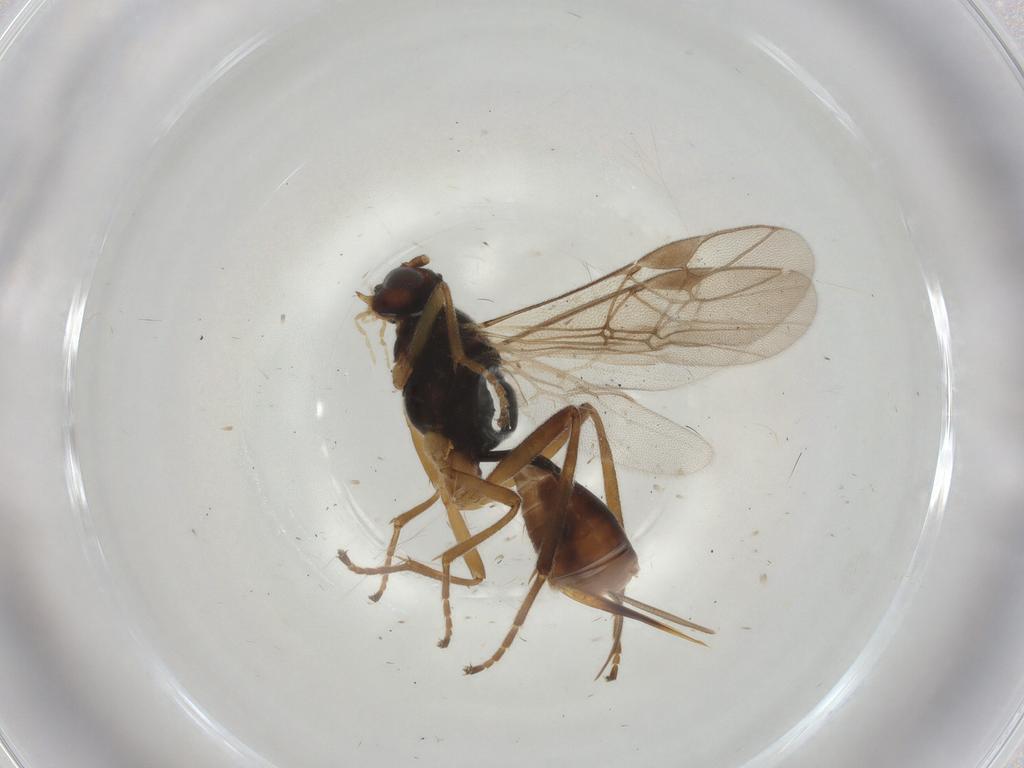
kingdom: Animalia
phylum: Arthropoda
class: Insecta
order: Hymenoptera
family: Braconidae
